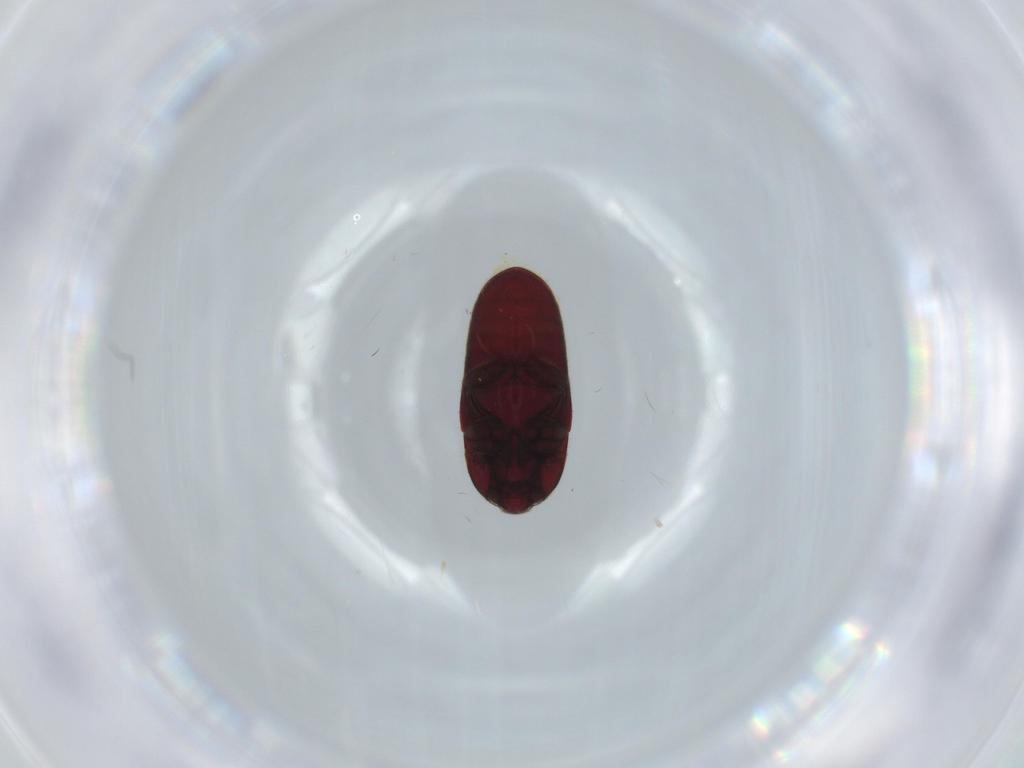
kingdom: Animalia
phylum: Arthropoda
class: Insecta
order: Coleoptera
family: Throscidae
